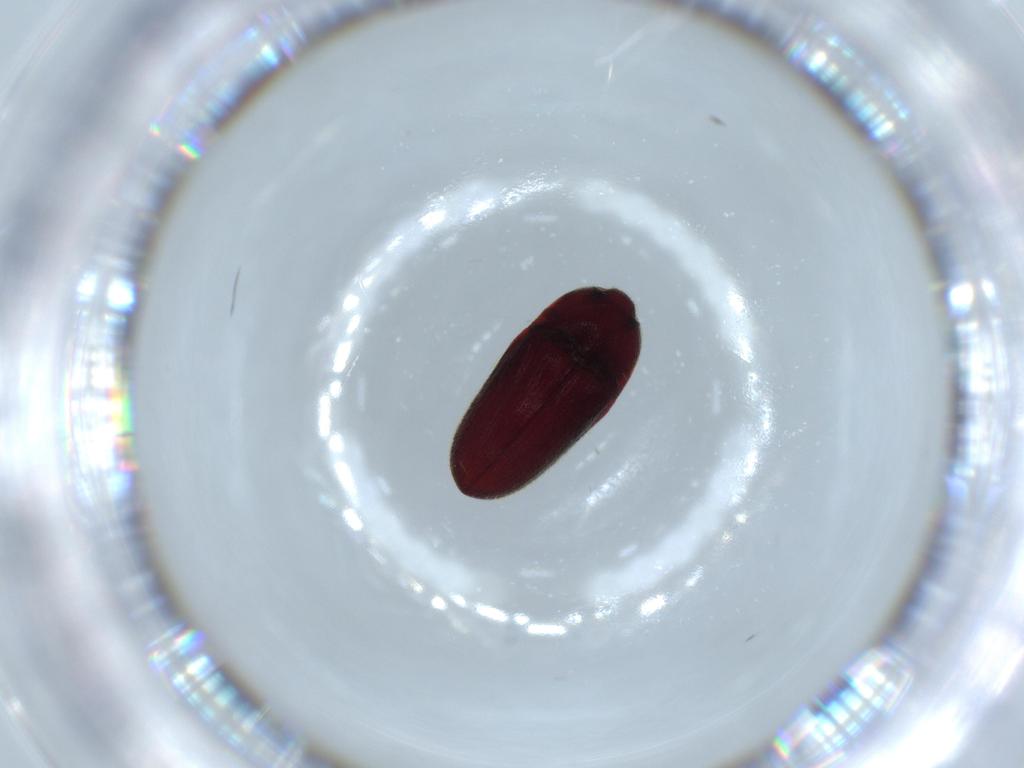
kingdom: Animalia
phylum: Arthropoda
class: Insecta
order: Coleoptera
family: Throscidae
